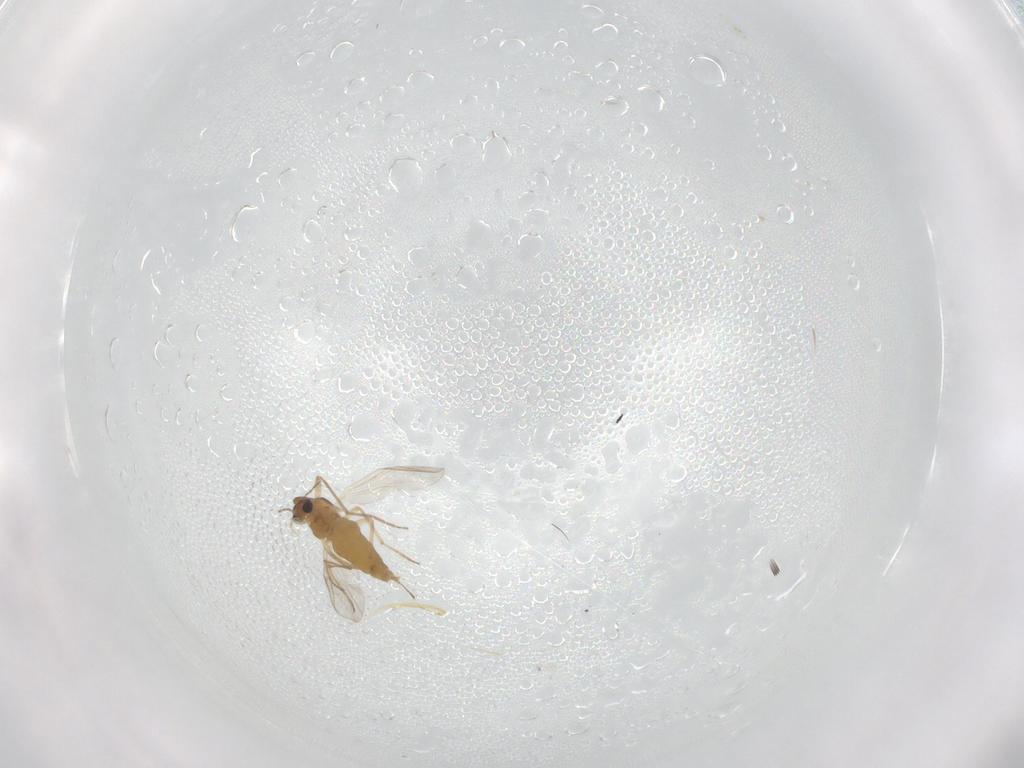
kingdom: Animalia
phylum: Arthropoda
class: Insecta
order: Diptera
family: Chironomidae
